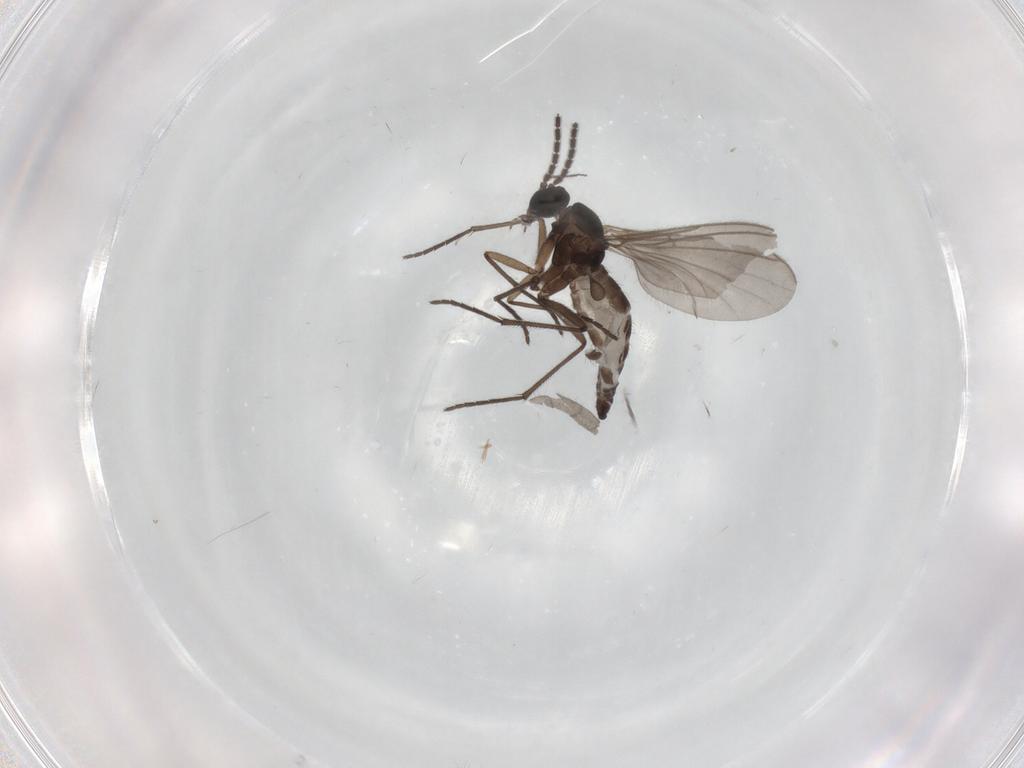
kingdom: Animalia
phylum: Arthropoda
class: Insecta
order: Diptera
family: Sciaridae
